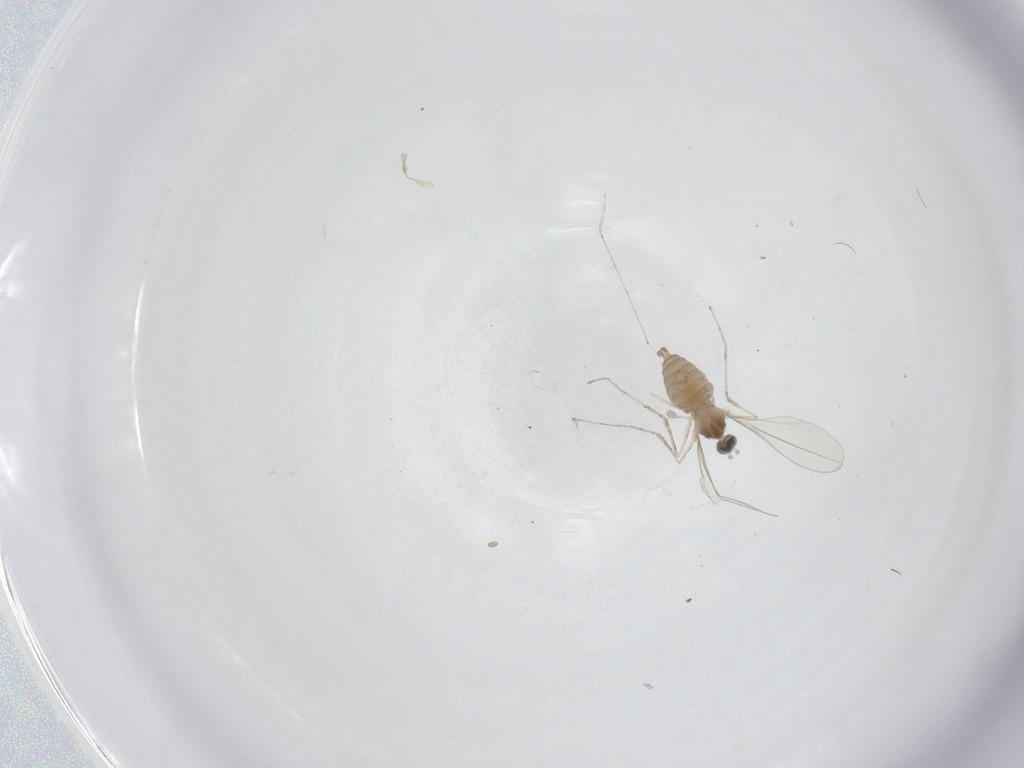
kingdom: Animalia
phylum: Arthropoda
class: Insecta
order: Diptera
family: Cecidomyiidae
